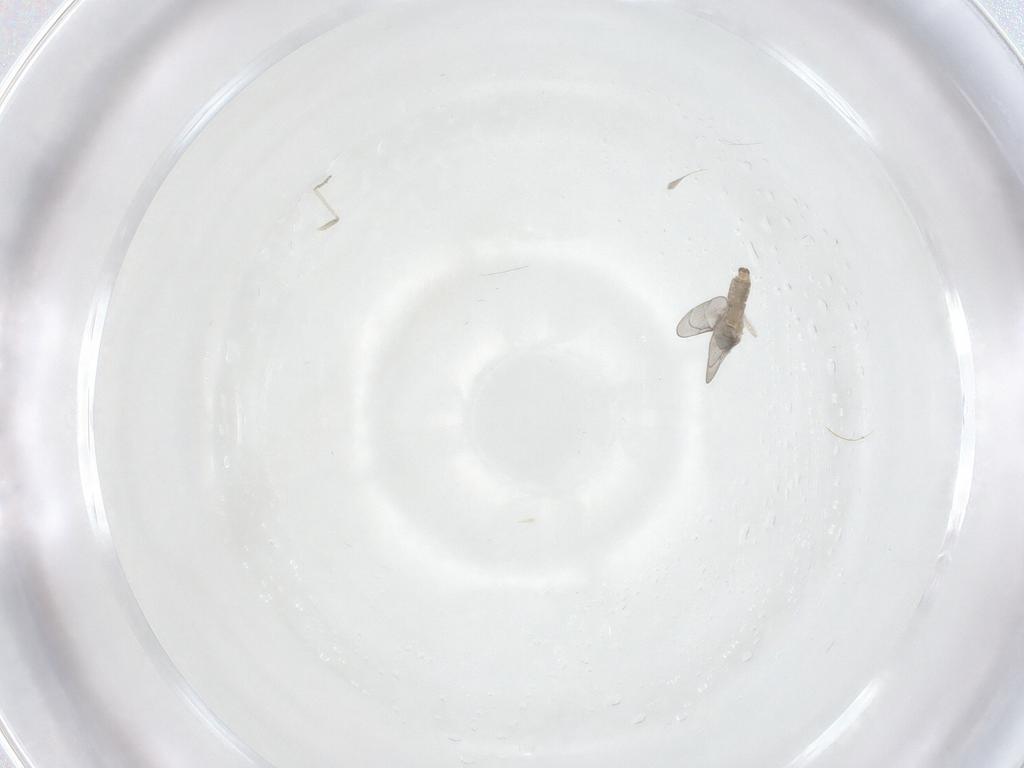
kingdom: Animalia
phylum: Arthropoda
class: Insecta
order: Diptera
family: Cecidomyiidae
